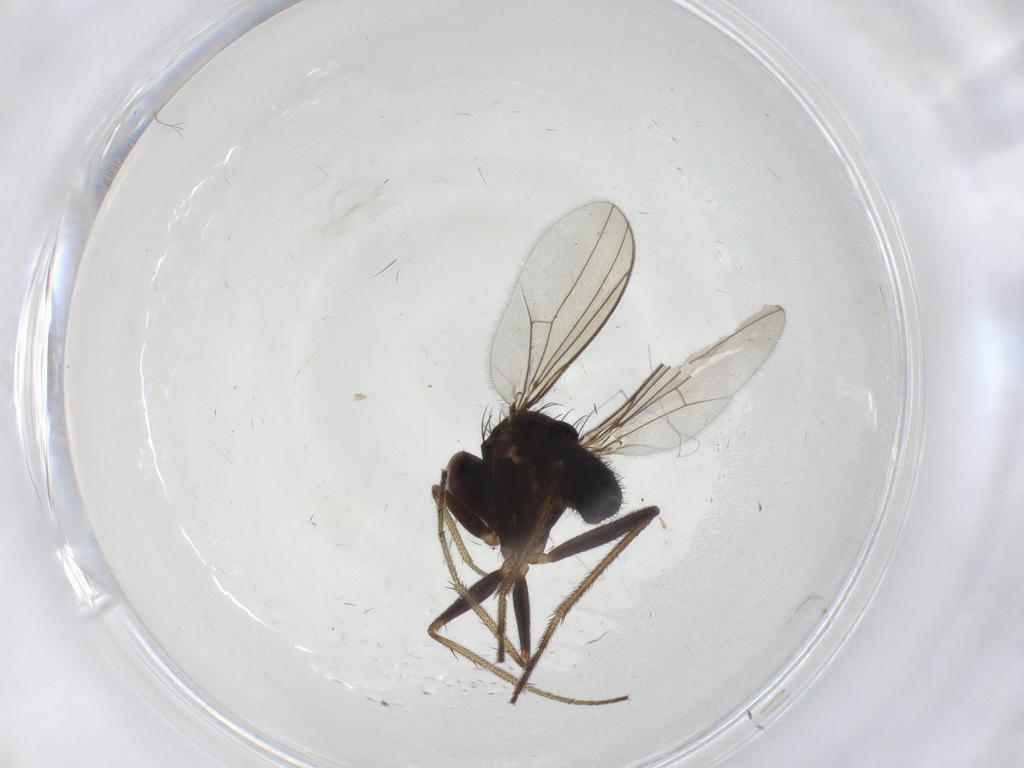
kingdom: Animalia
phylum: Arthropoda
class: Insecta
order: Diptera
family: Dolichopodidae
